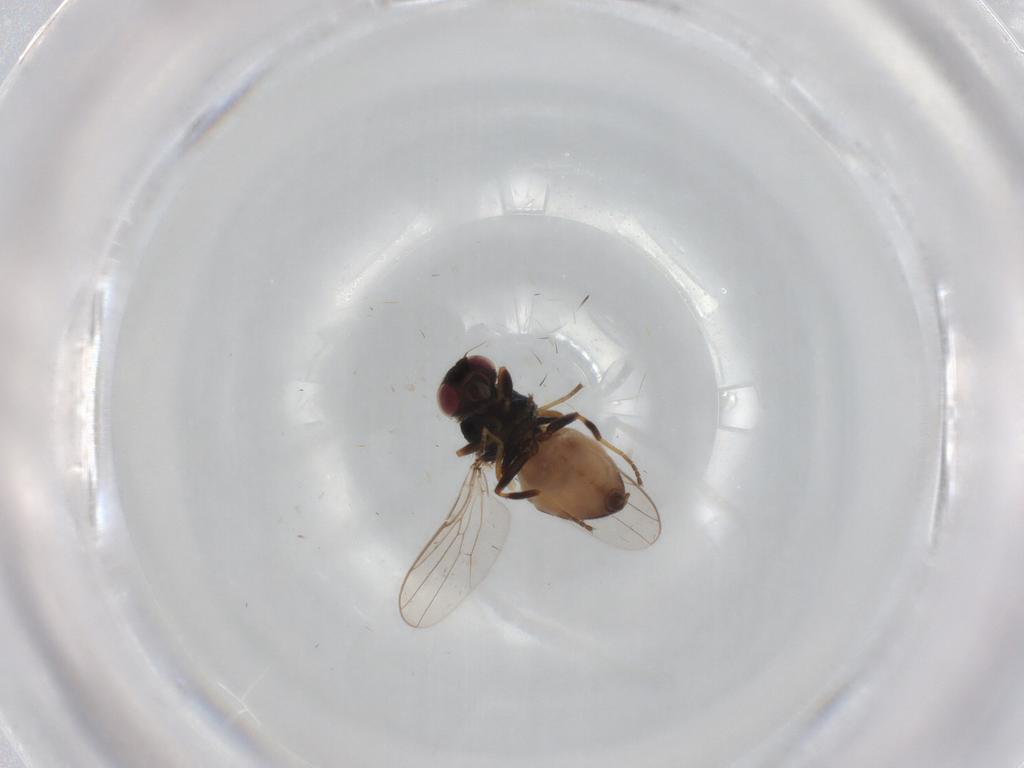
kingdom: Animalia
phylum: Arthropoda
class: Insecta
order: Diptera
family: Chloropidae
